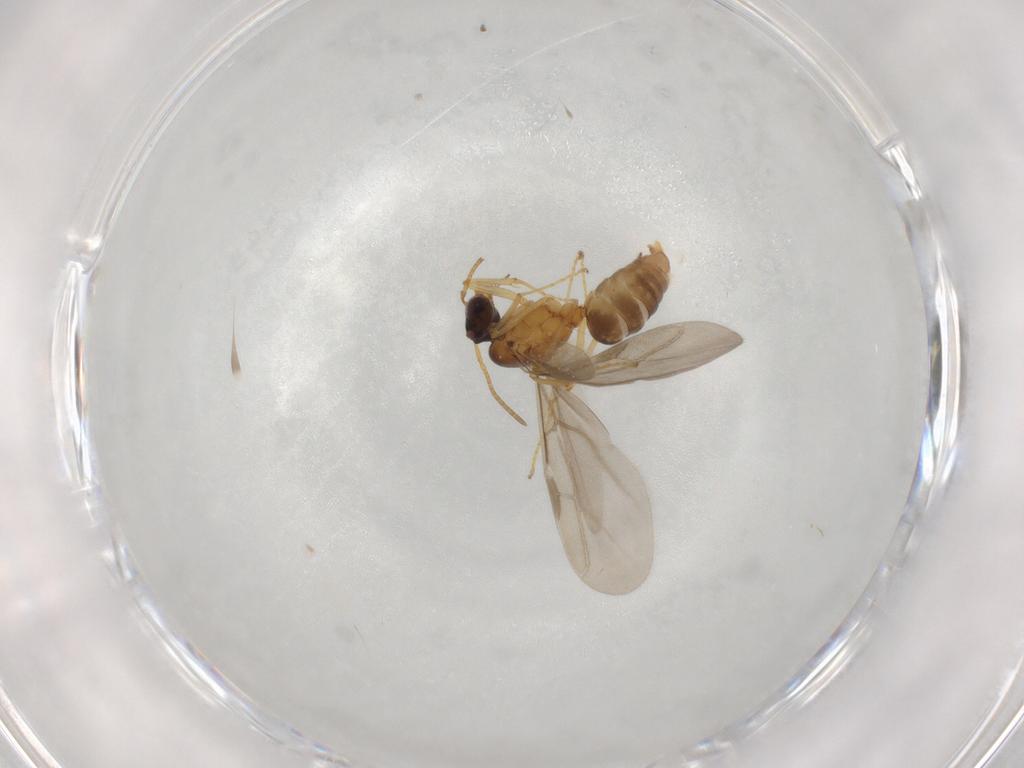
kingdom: Animalia
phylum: Arthropoda
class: Insecta
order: Hymenoptera
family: Formicidae
